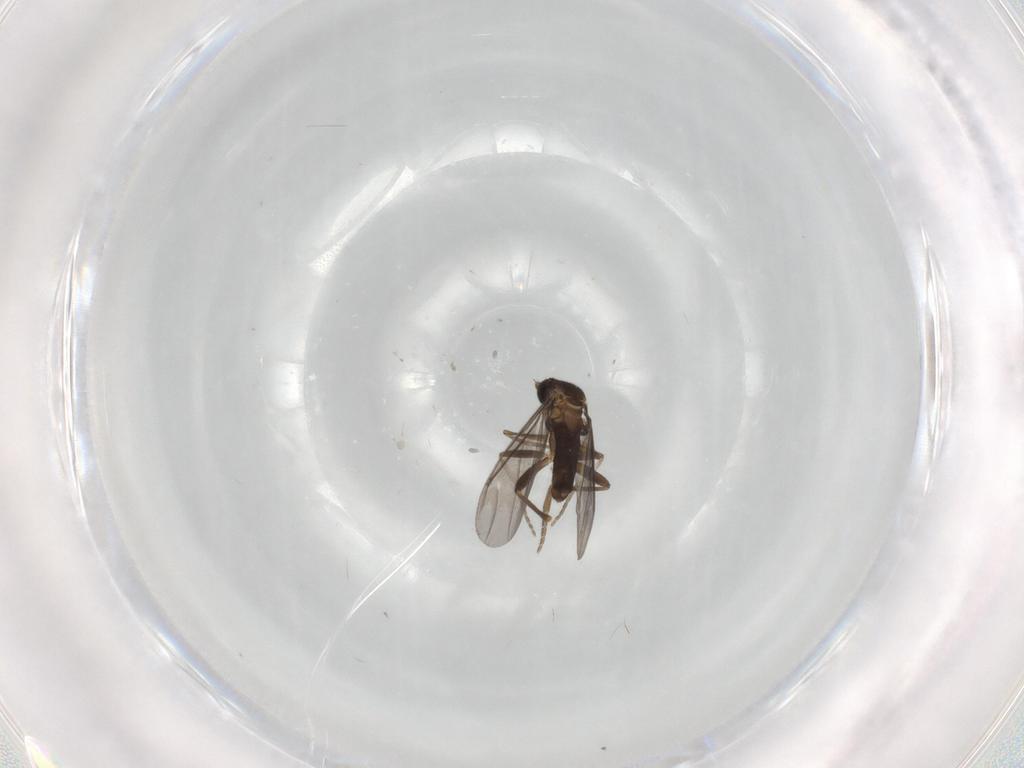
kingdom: Animalia
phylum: Arthropoda
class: Insecta
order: Diptera
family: Phoridae
